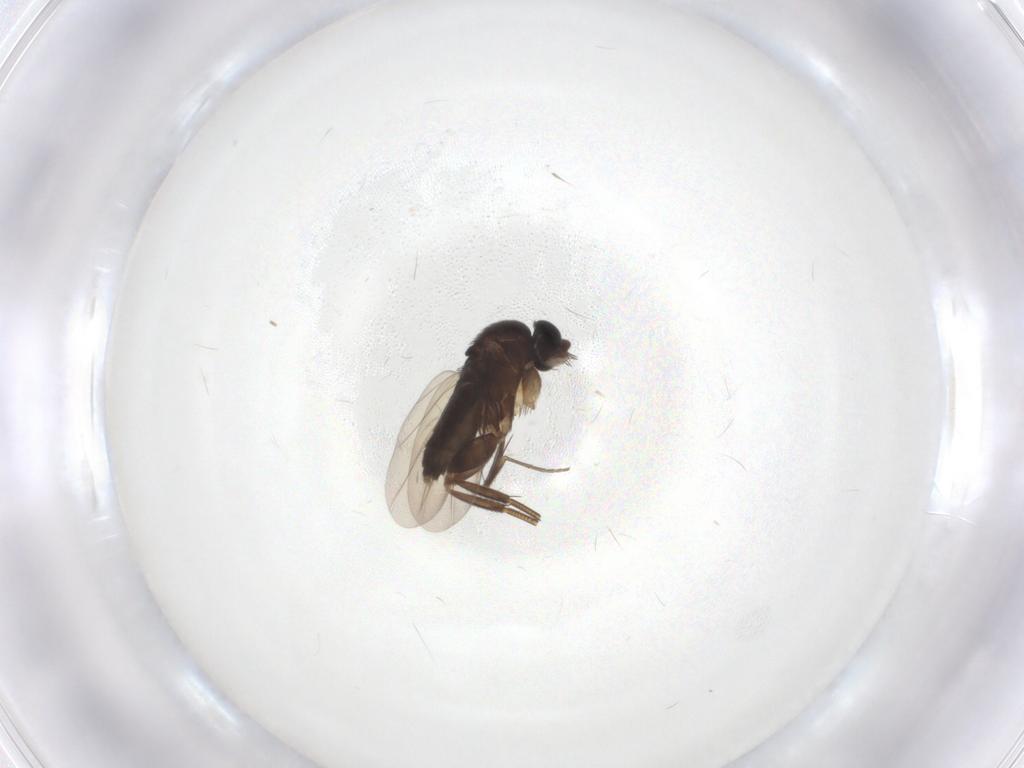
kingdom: Animalia
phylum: Arthropoda
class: Insecta
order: Diptera
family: Phoridae
